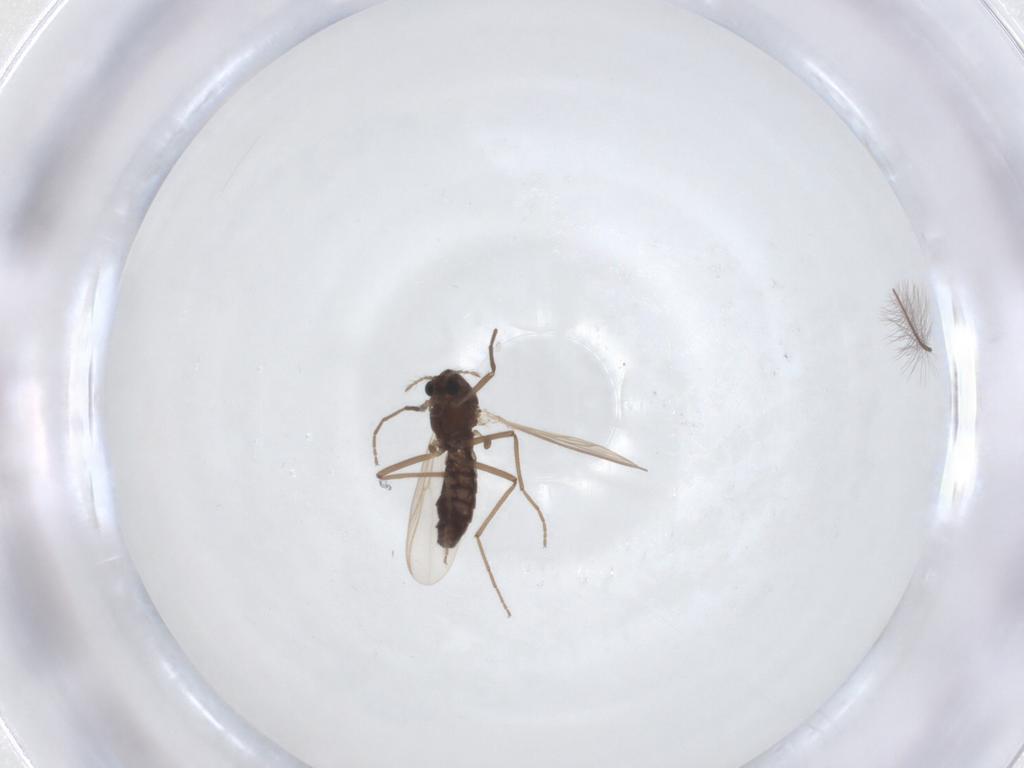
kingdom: Animalia
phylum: Arthropoda
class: Insecta
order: Diptera
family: Chironomidae
